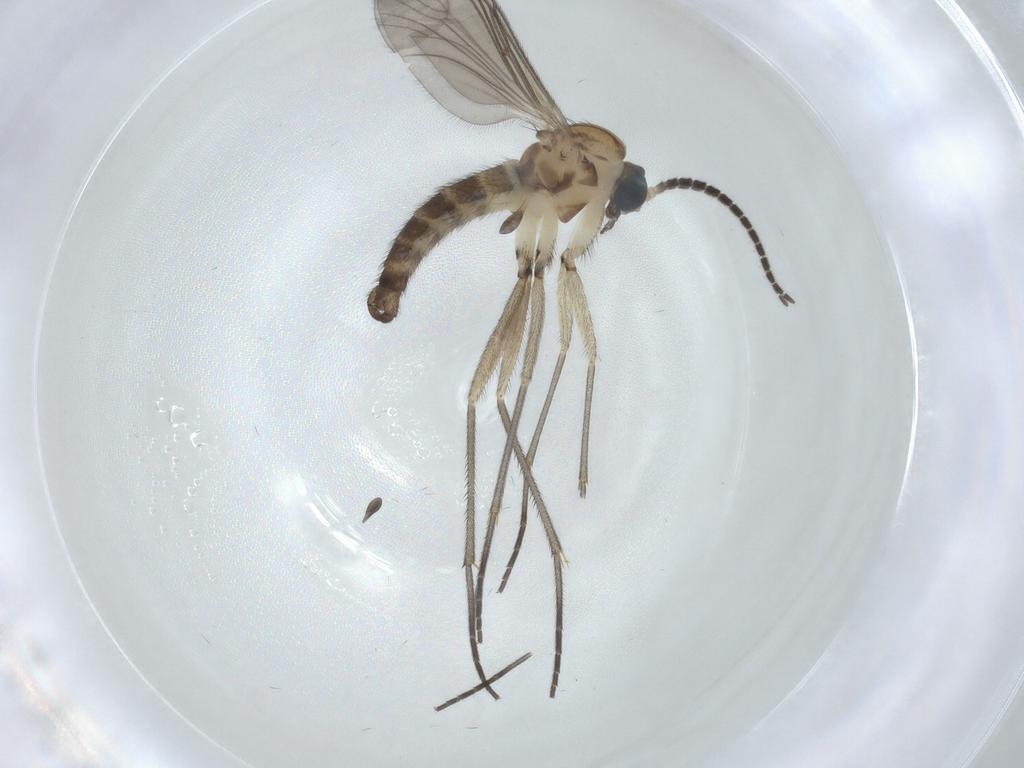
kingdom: Animalia
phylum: Arthropoda
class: Insecta
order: Diptera
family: Sciaridae
